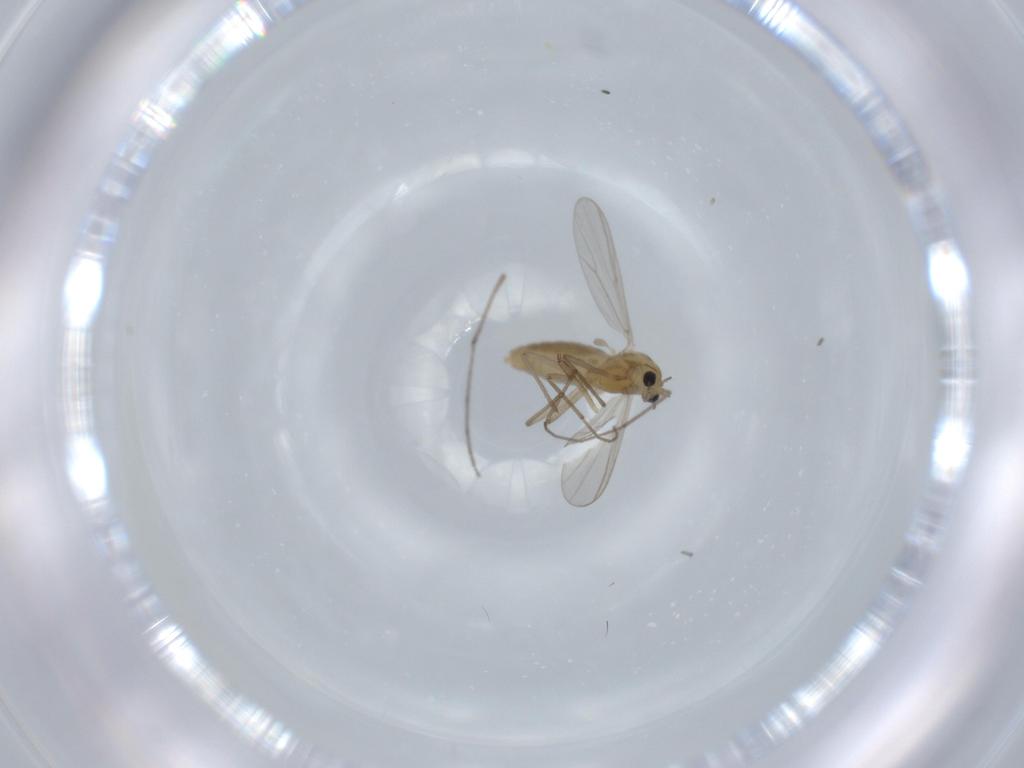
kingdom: Animalia
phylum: Arthropoda
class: Insecta
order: Diptera
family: Chironomidae
